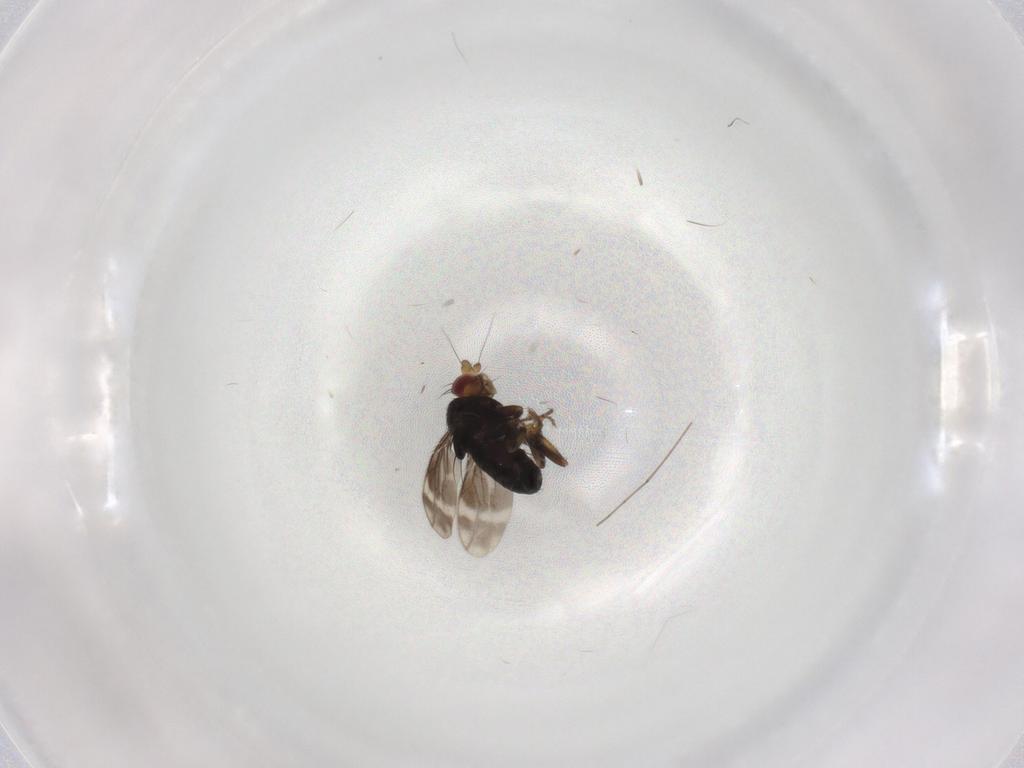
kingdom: Animalia
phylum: Arthropoda
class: Insecta
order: Diptera
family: Sphaeroceridae
